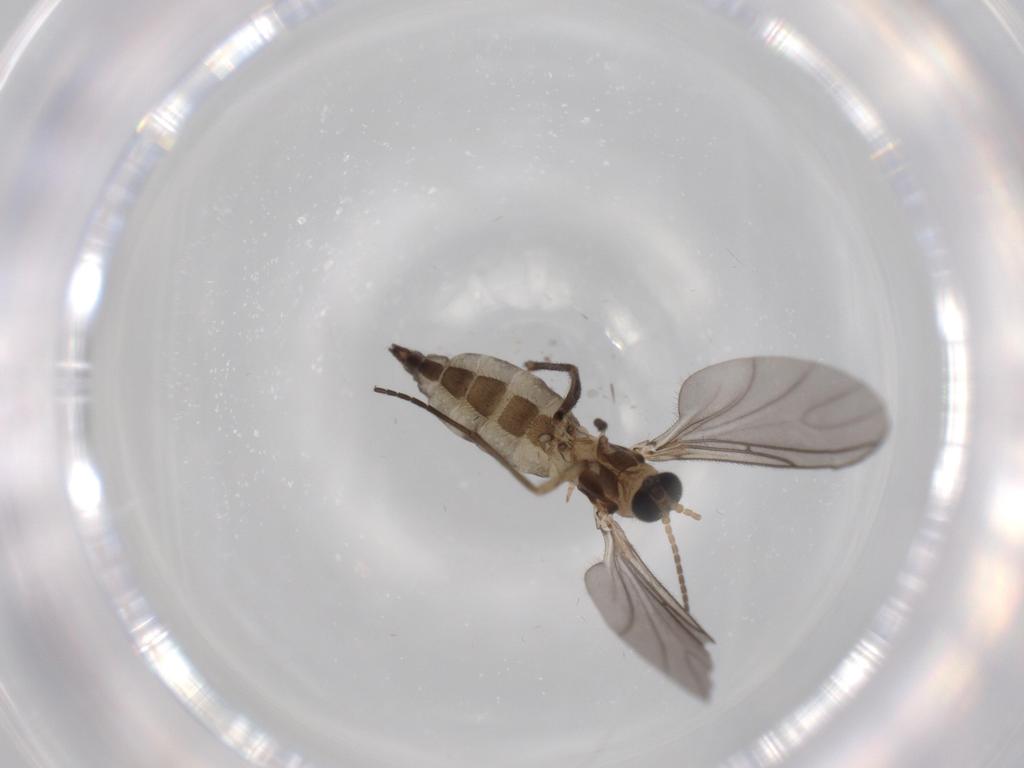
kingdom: Animalia
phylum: Arthropoda
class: Insecta
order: Diptera
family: Sciaridae
